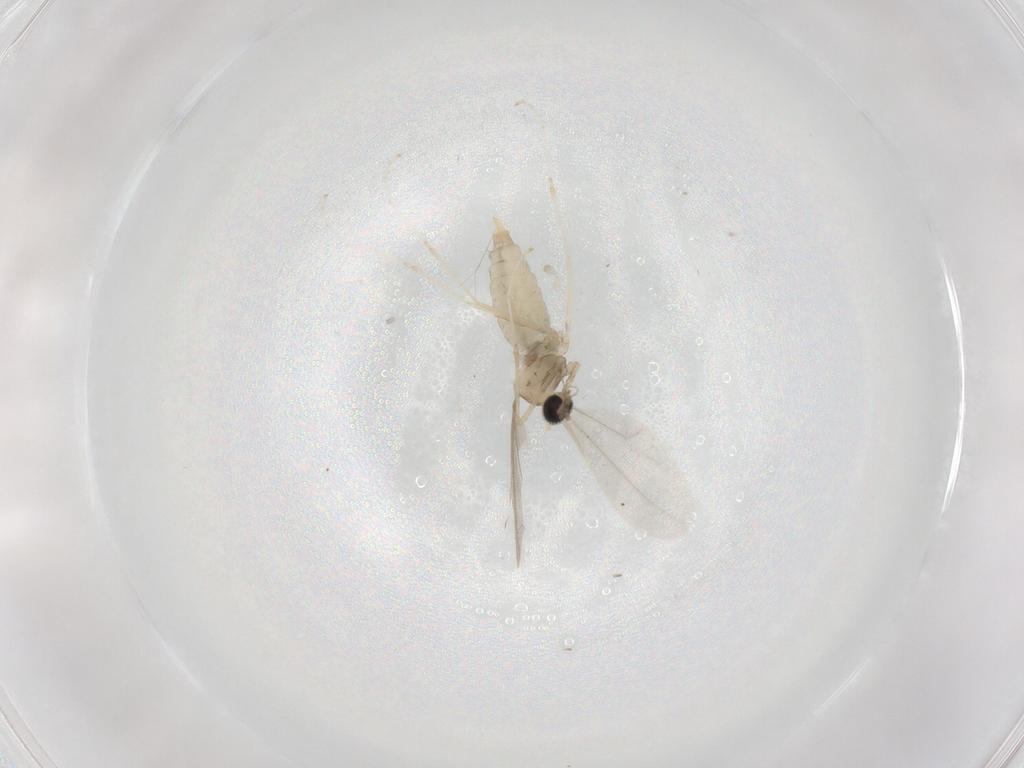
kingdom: Animalia
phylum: Arthropoda
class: Insecta
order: Diptera
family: Cecidomyiidae
